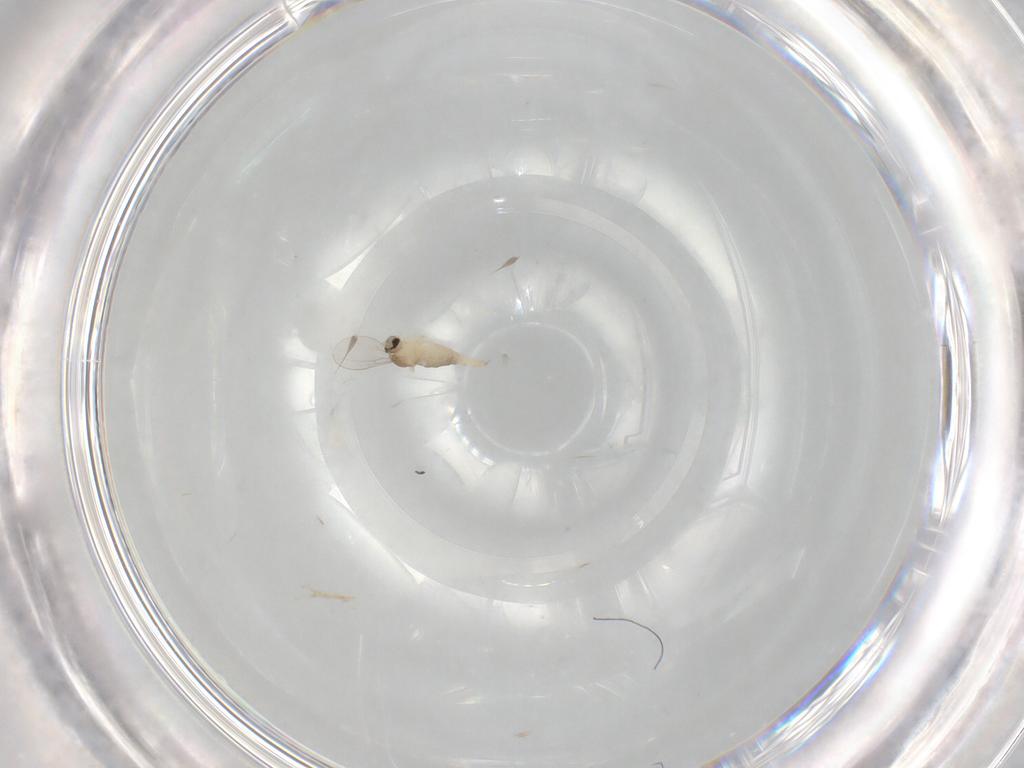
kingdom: Animalia
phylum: Arthropoda
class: Insecta
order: Diptera
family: Cecidomyiidae
